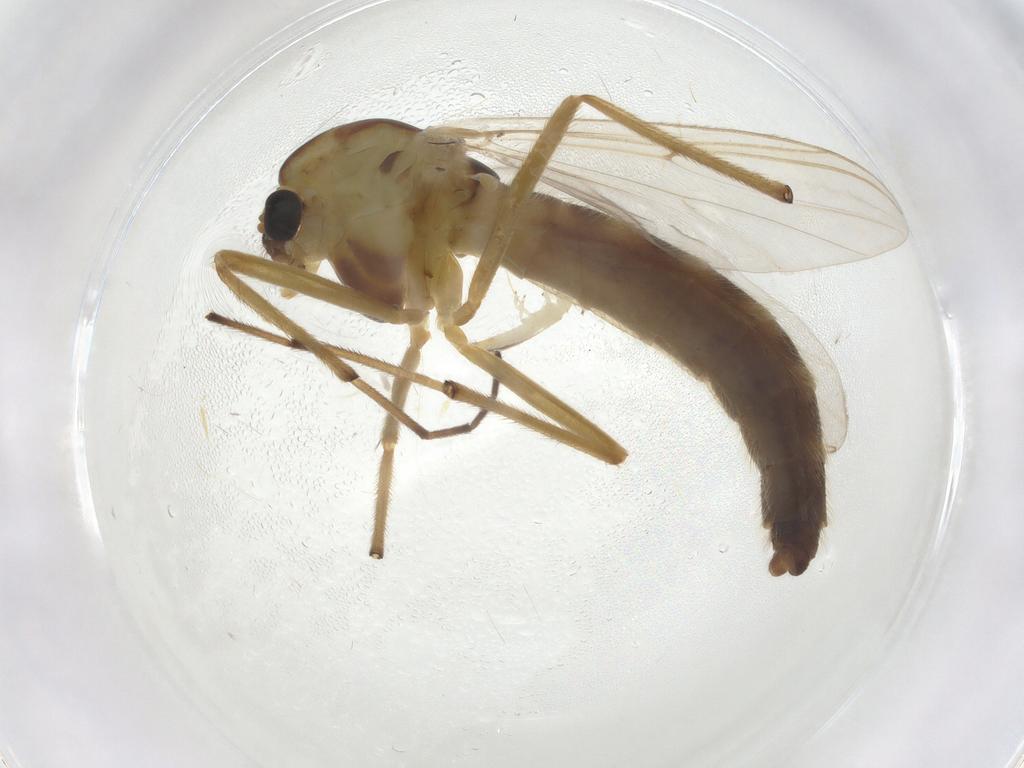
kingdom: Animalia
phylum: Arthropoda
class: Insecta
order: Diptera
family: Chironomidae
